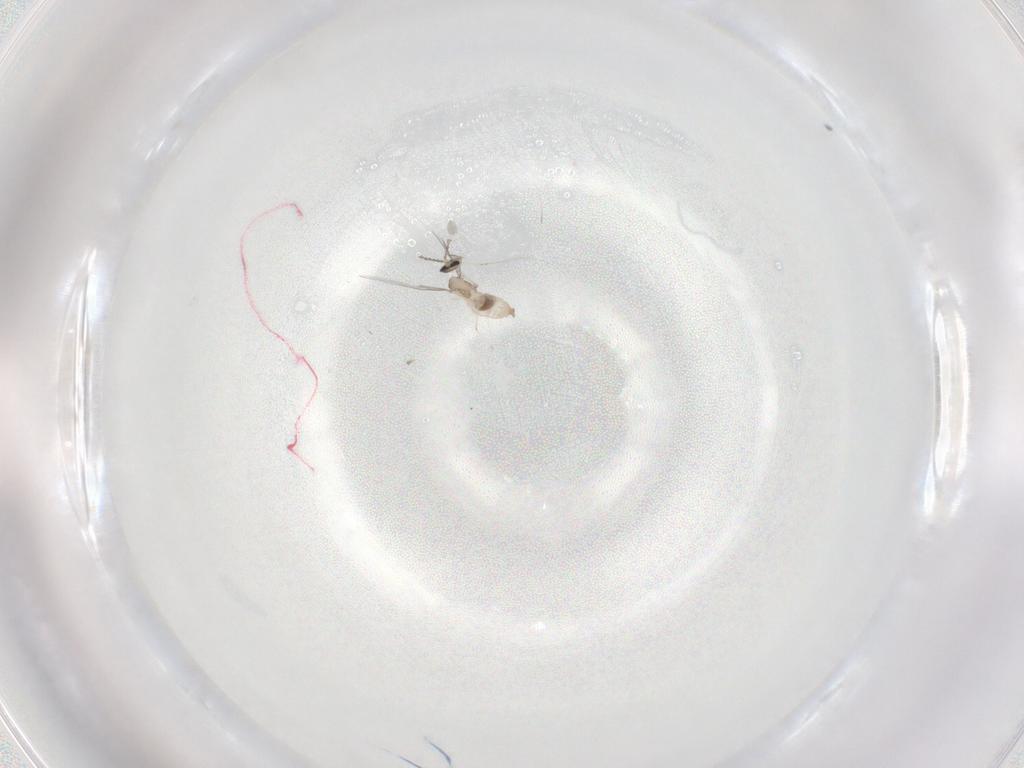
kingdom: Animalia
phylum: Arthropoda
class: Insecta
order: Diptera
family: Cecidomyiidae
